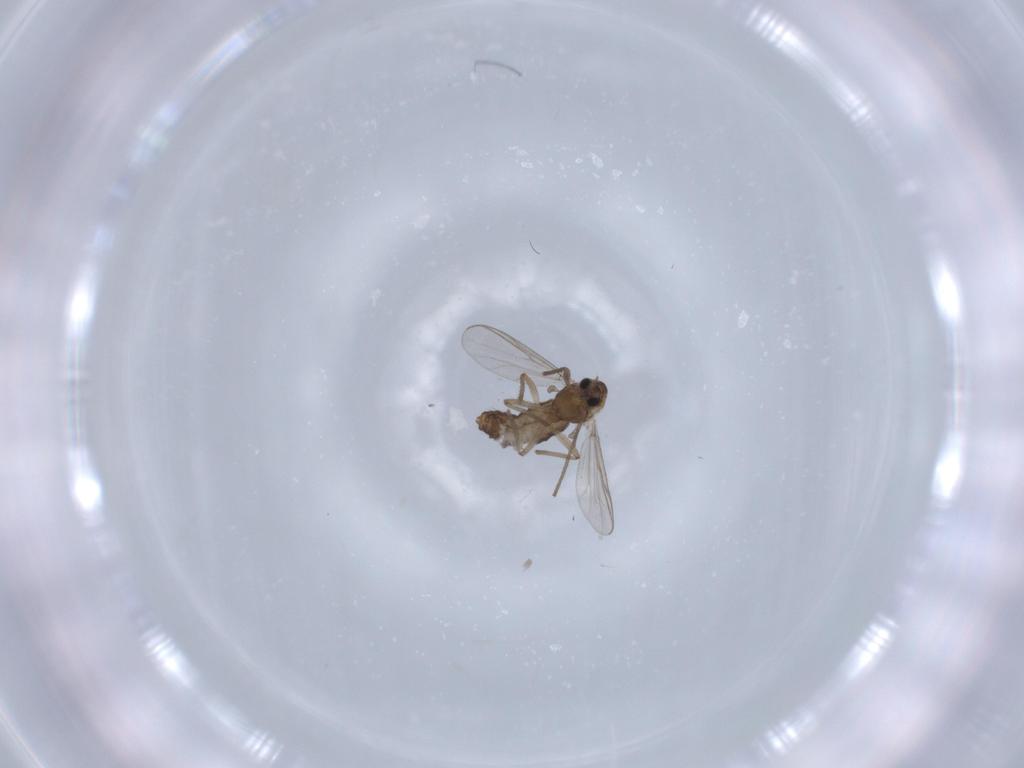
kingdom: Animalia
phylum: Arthropoda
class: Insecta
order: Diptera
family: Chironomidae
